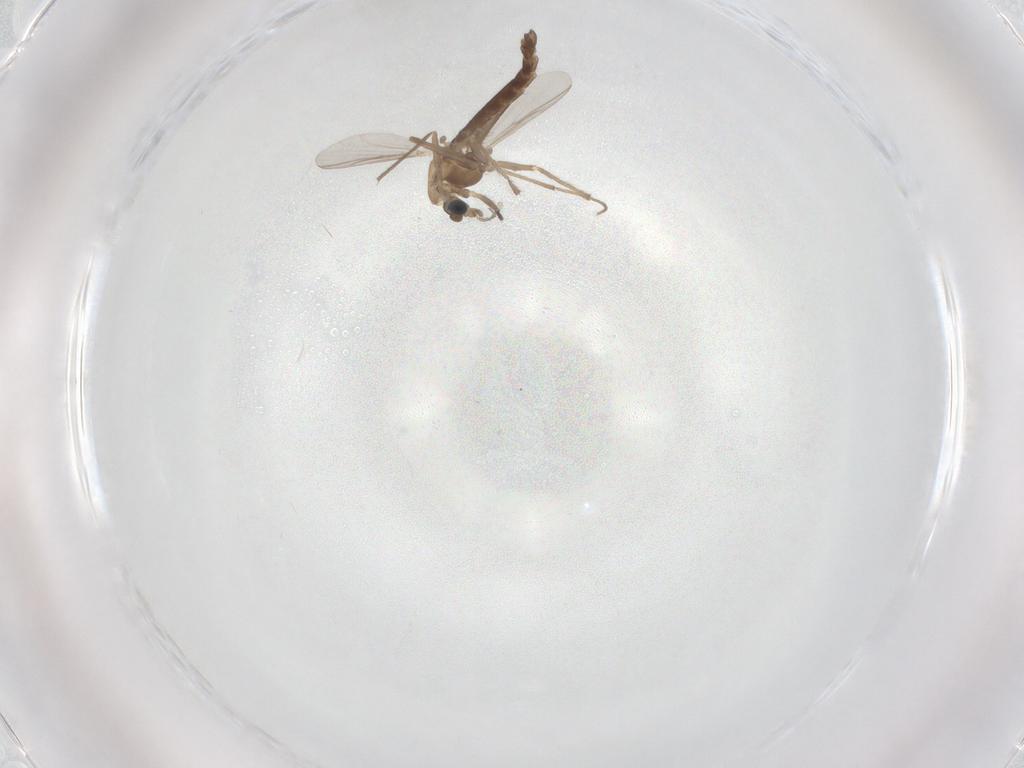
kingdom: Animalia
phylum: Arthropoda
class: Insecta
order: Diptera
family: Chironomidae
